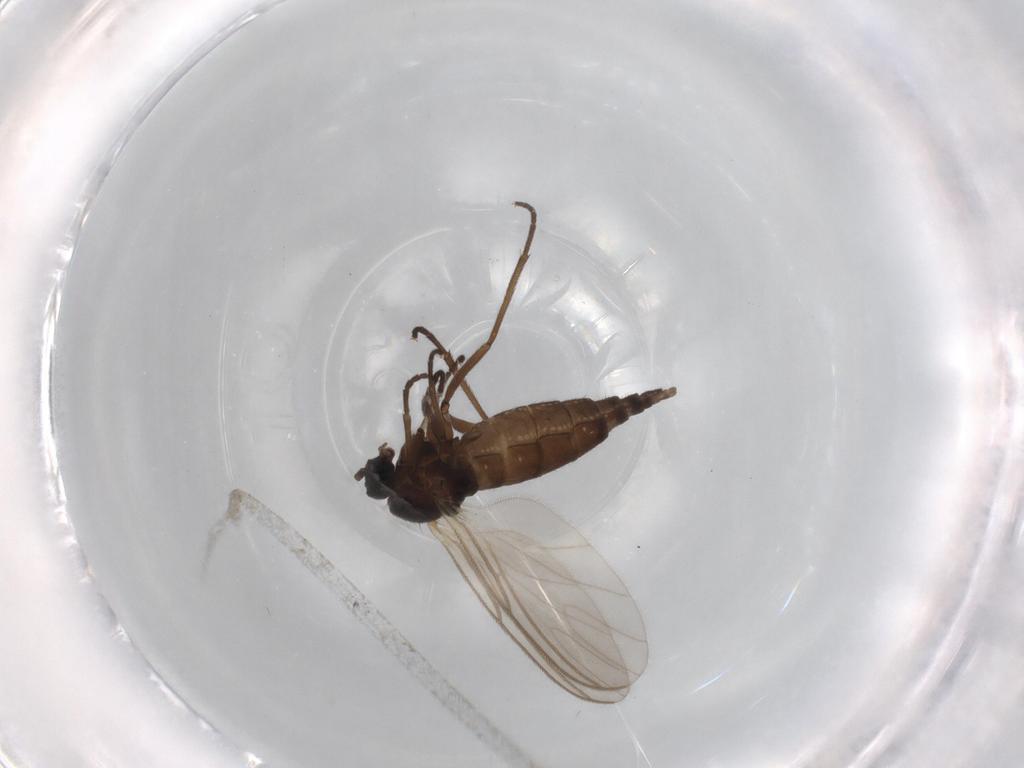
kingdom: Animalia
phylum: Arthropoda
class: Insecta
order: Diptera
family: Sciaridae
